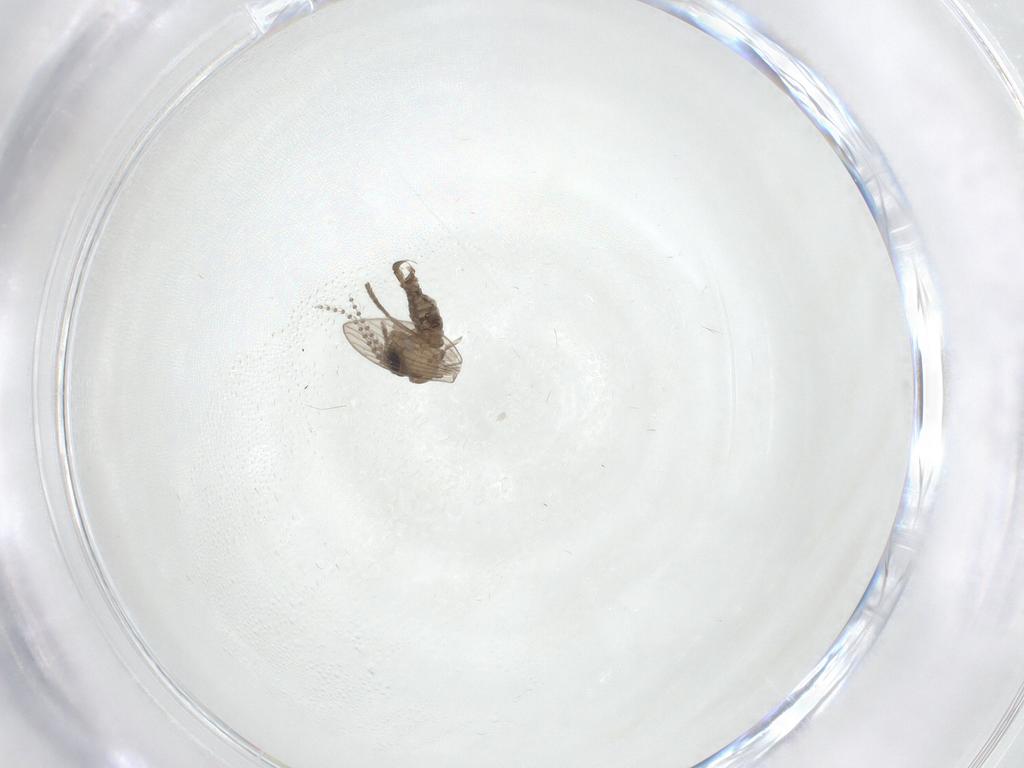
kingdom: Animalia
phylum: Arthropoda
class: Insecta
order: Diptera
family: Psychodidae
